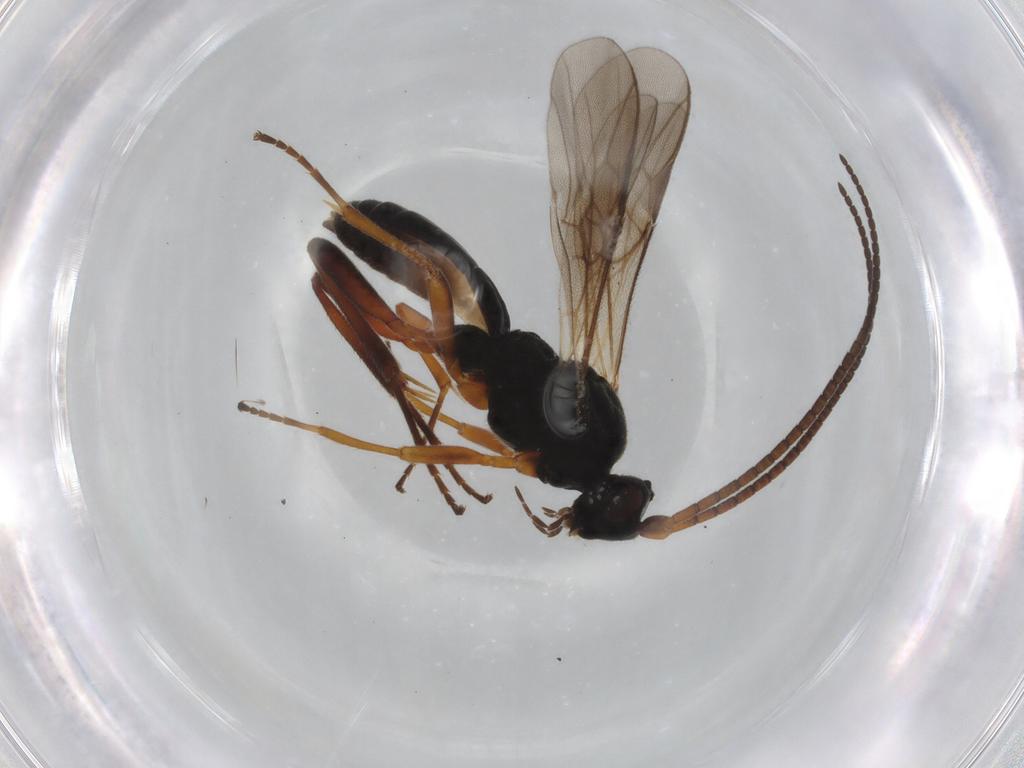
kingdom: Animalia
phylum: Arthropoda
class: Insecta
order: Hymenoptera
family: Braconidae
